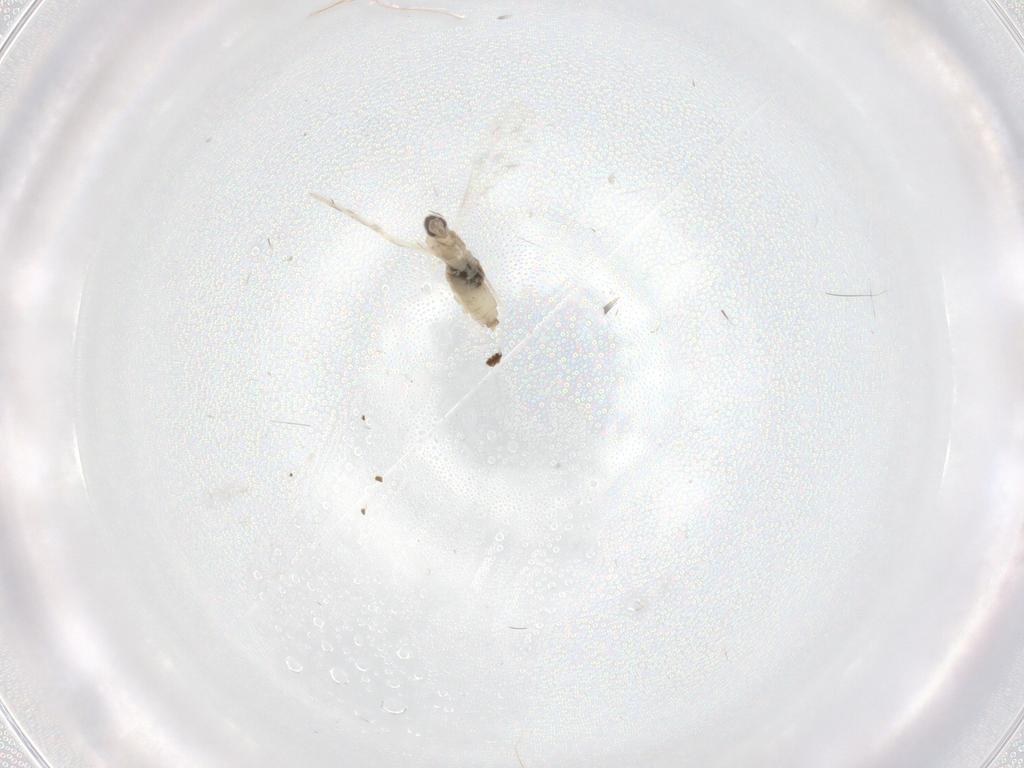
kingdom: Animalia
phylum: Arthropoda
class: Insecta
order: Diptera
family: Cecidomyiidae
